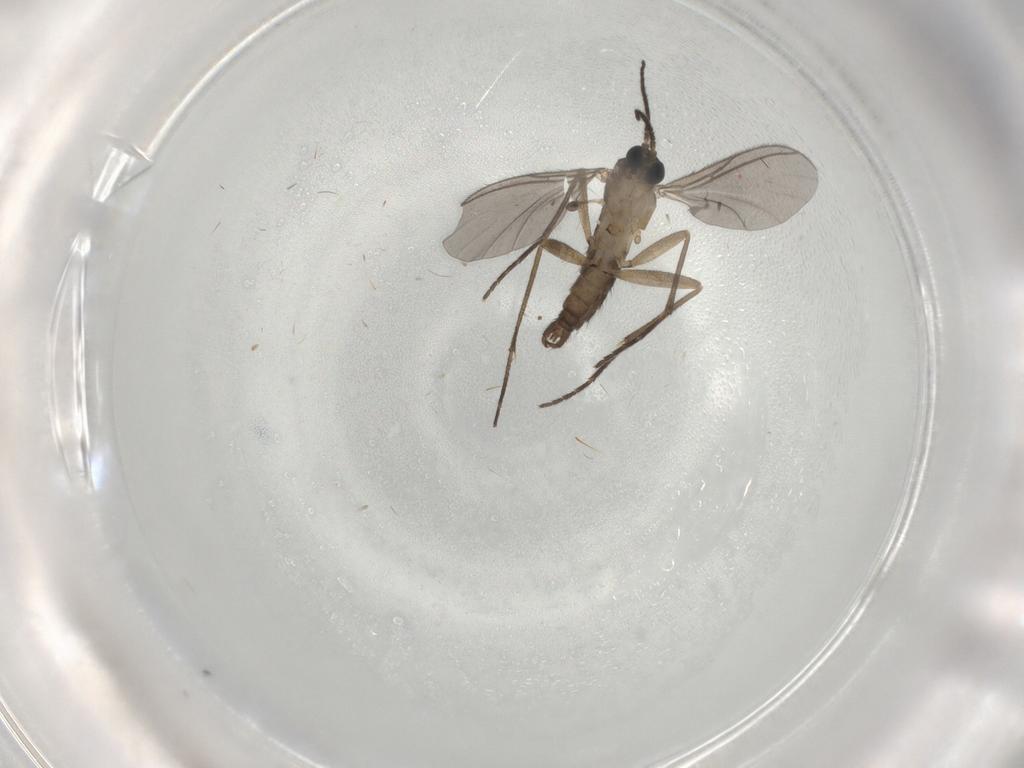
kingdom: Animalia
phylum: Arthropoda
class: Insecta
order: Diptera
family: Sciaridae
